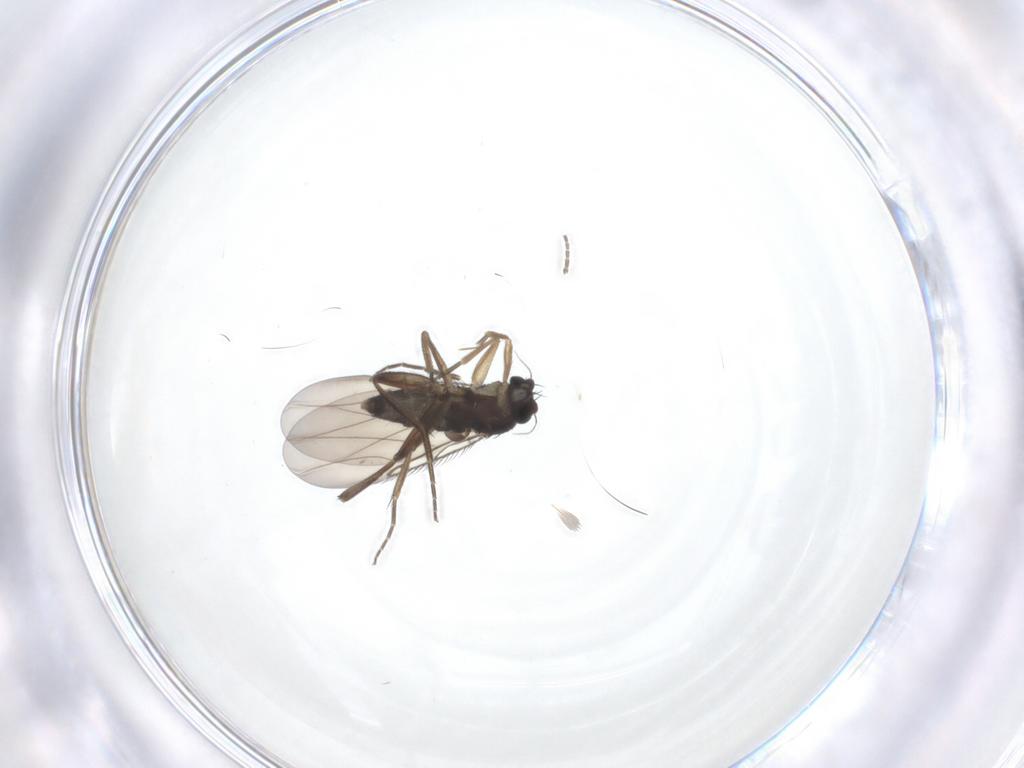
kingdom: Animalia
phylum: Arthropoda
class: Insecta
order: Diptera
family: Phoridae
